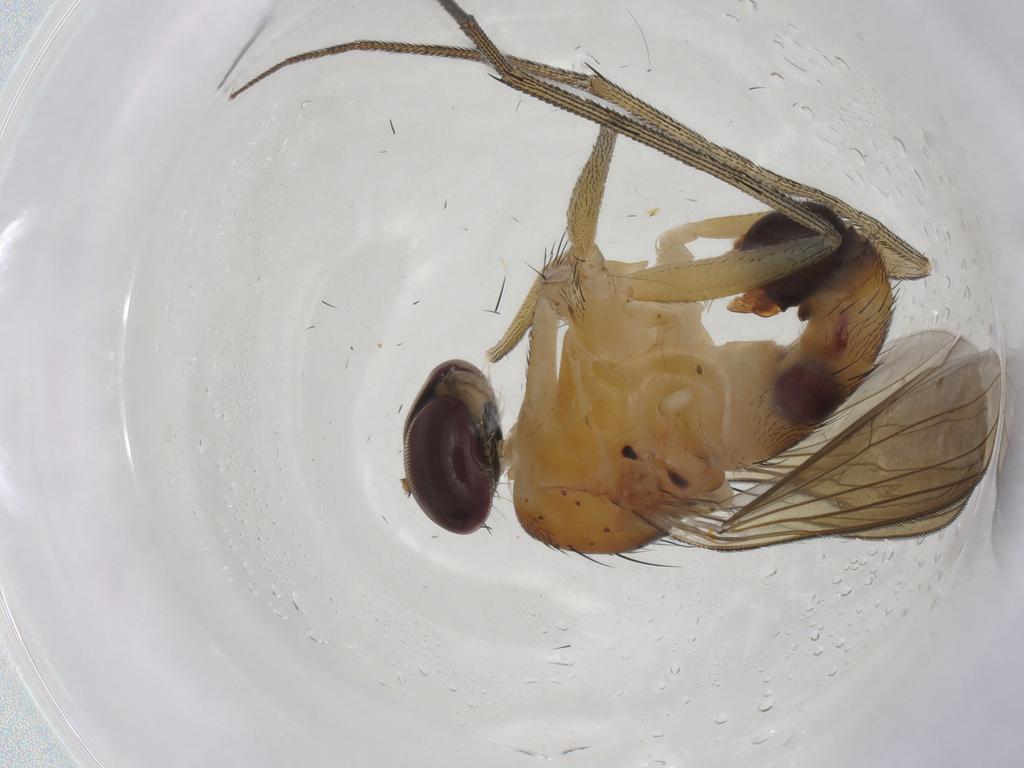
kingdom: Animalia
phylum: Arthropoda
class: Insecta
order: Diptera
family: Dolichopodidae
